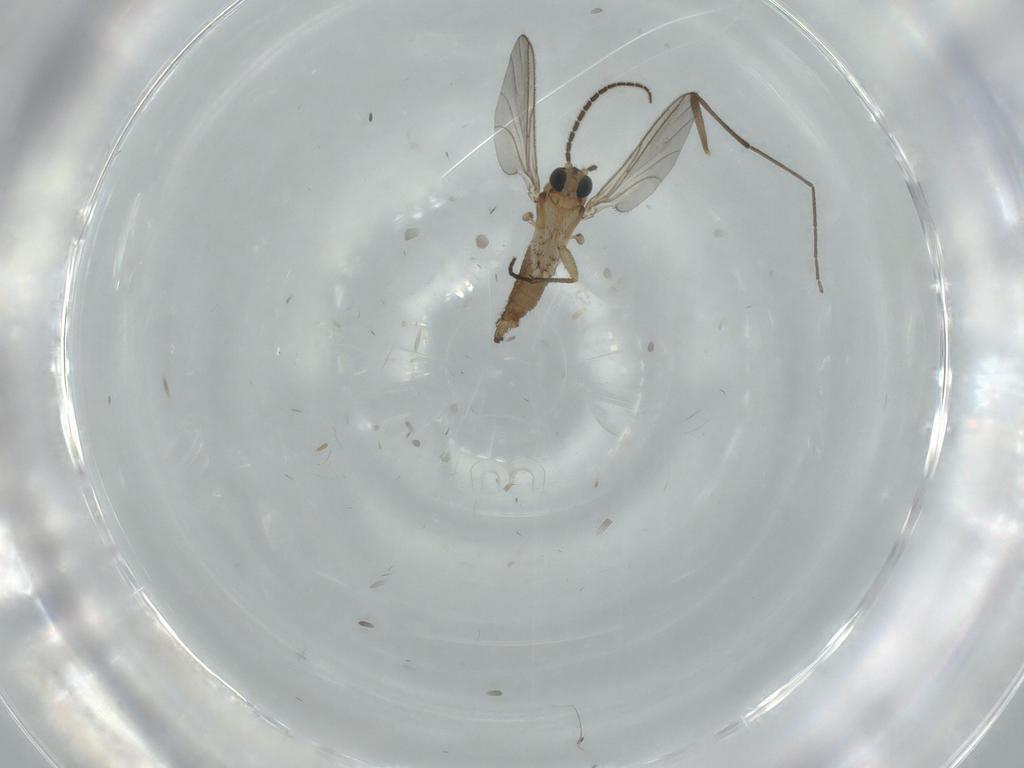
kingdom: Animalia
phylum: Arthropoda
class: Insecta
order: Diptera
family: Sciaridae
